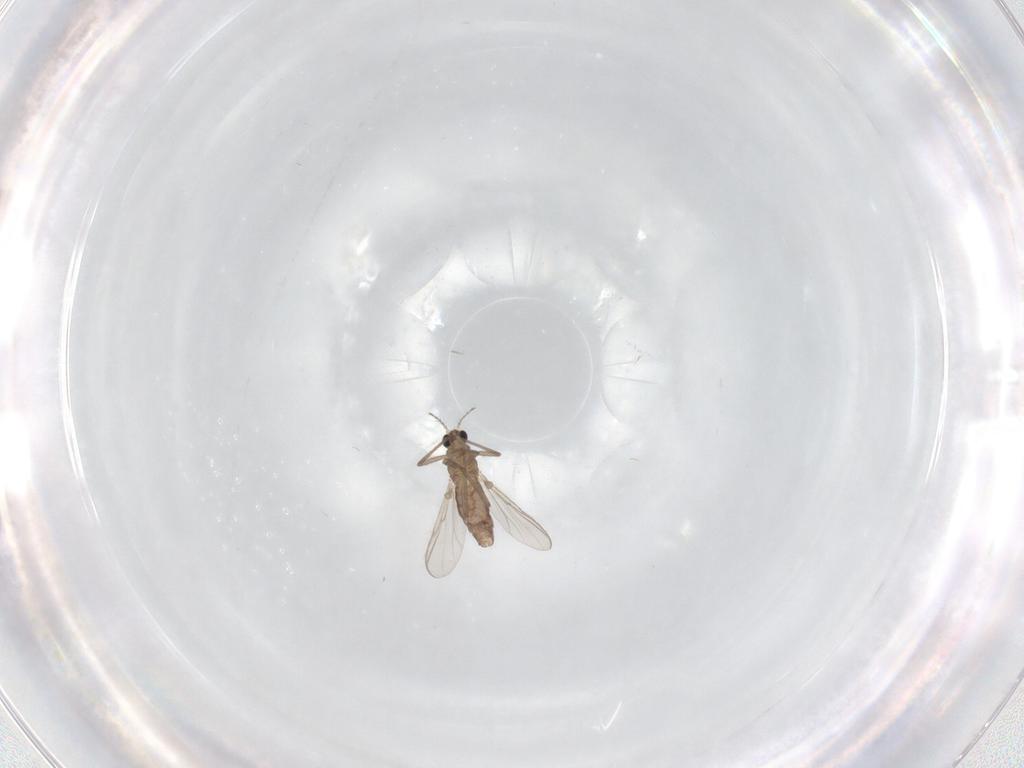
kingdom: Animalia
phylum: Arthropoda
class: Insecta
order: Diptera
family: Chironomidae
